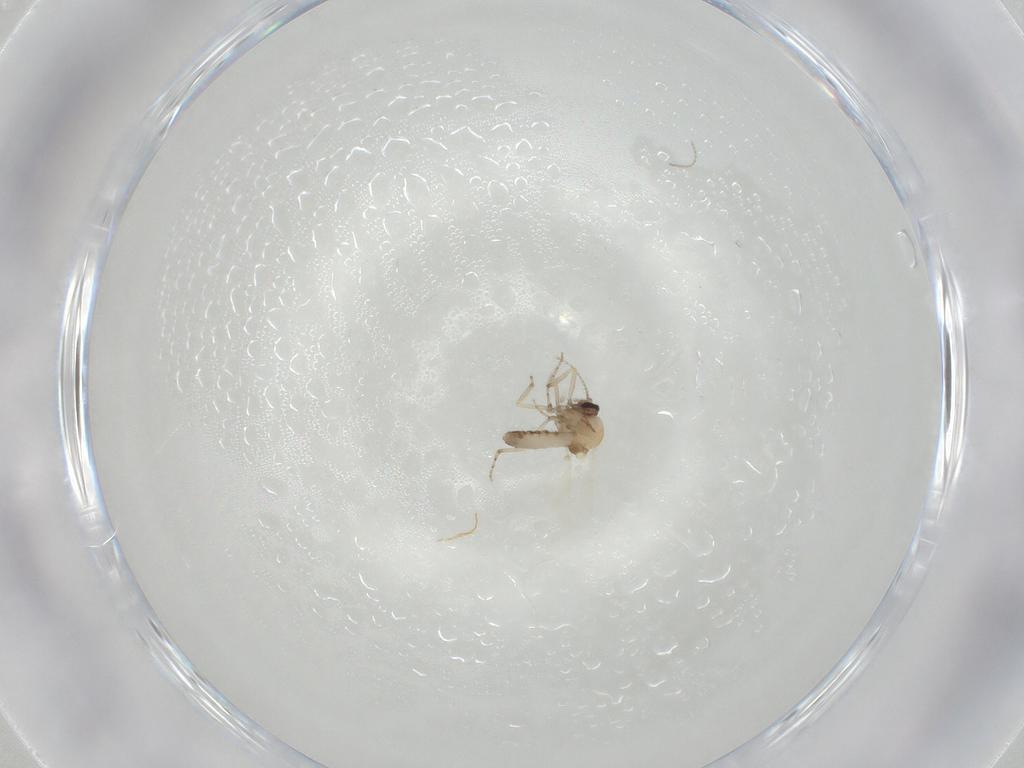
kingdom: Animalia
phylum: Arthropoda
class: Insecta
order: Diptera
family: Ceratopogonidae
